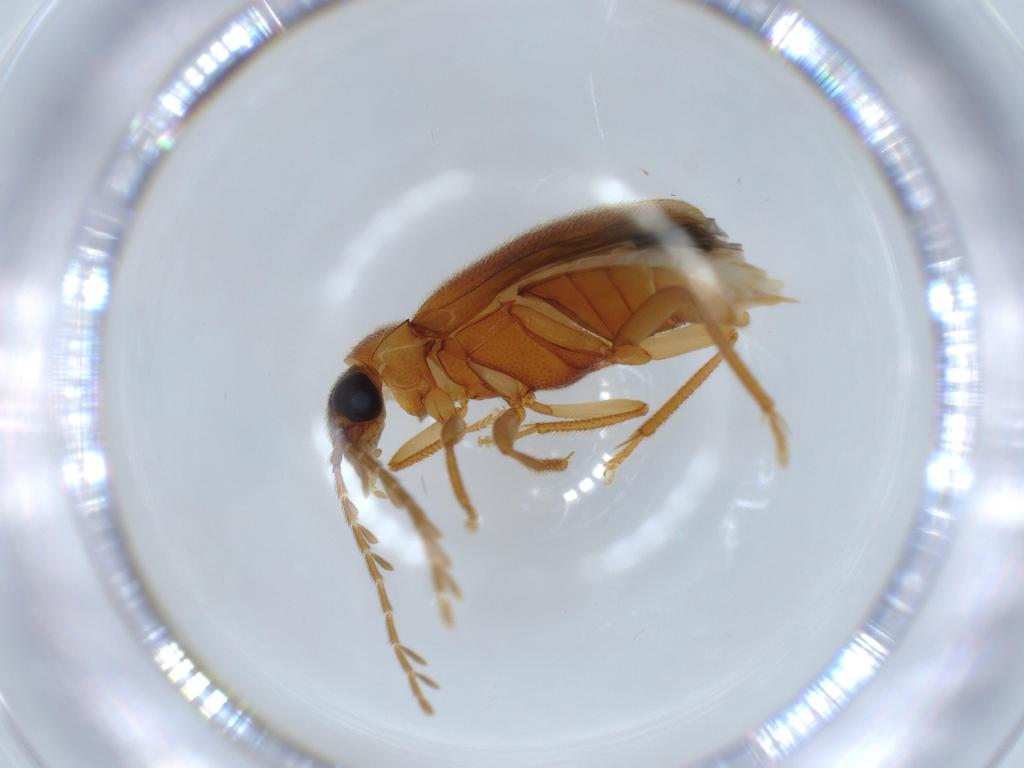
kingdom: Animalia
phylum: Arthropoda
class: Insecta
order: Coleoptera
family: Ptilodactylidae
